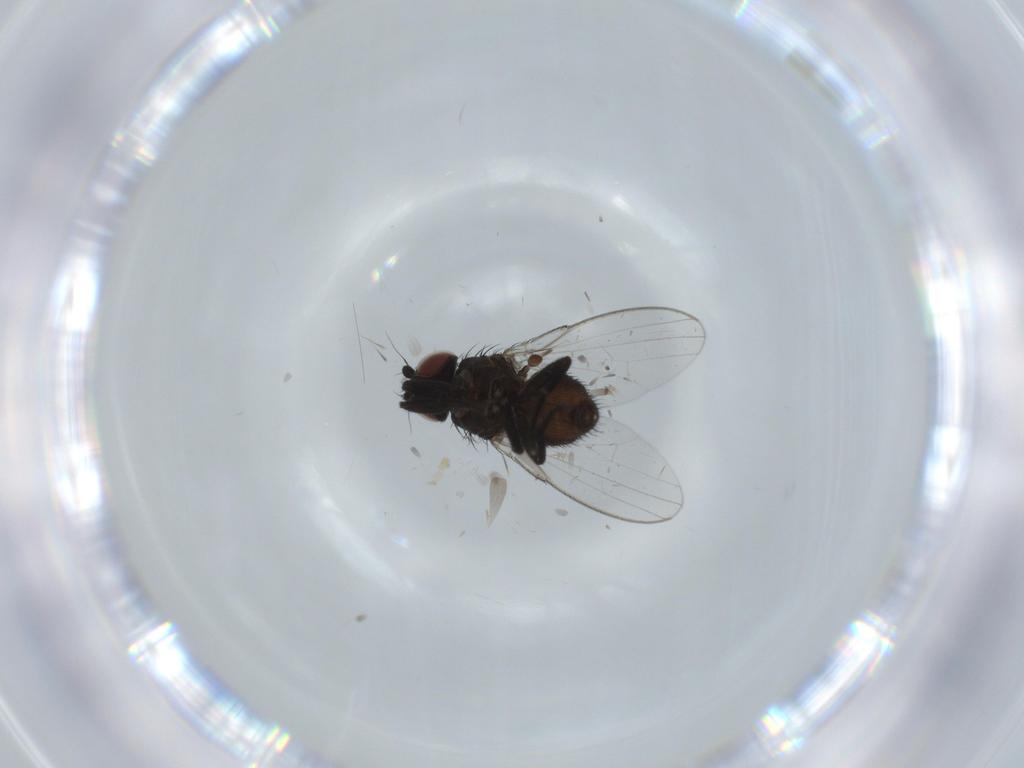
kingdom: Animalia
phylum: Arthropoda
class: Insecta
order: Diptera
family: Milichiidae
